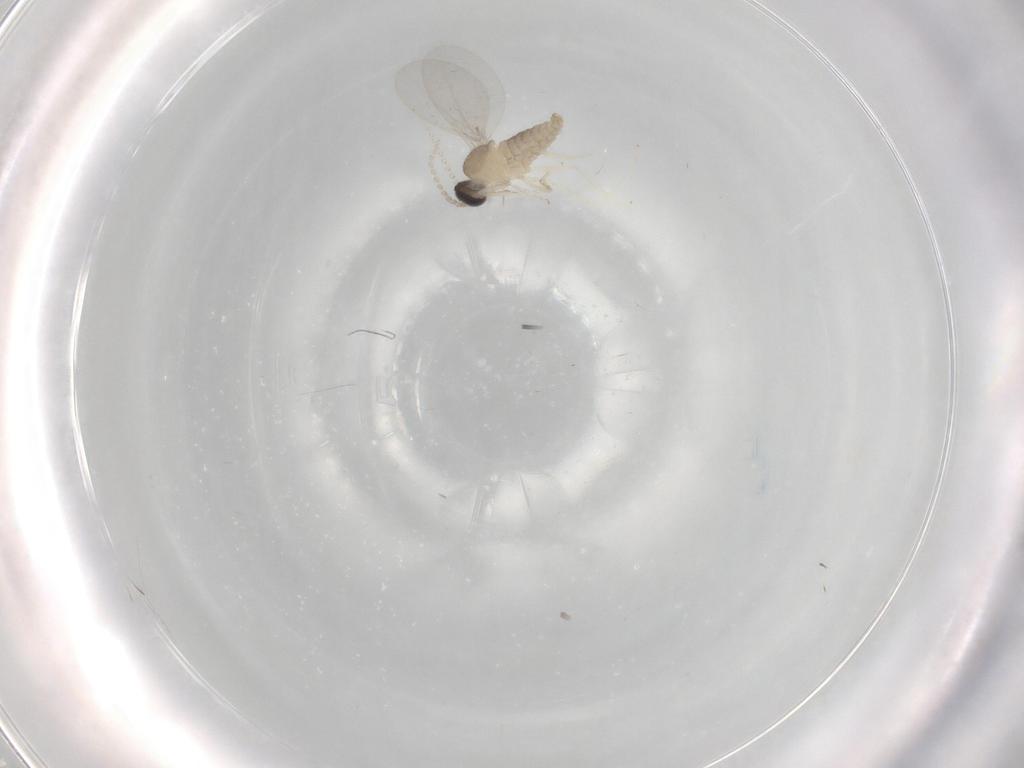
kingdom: Animalia
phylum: Arthropoda
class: Insecta
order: Diptera
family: Cecidomyiidae
